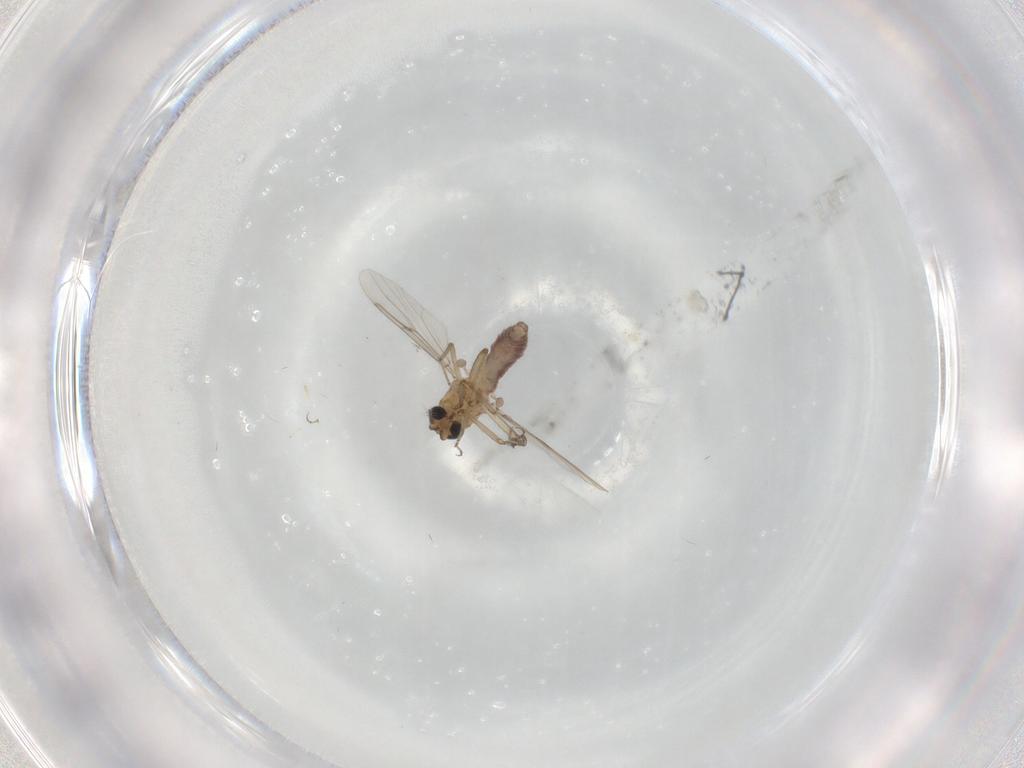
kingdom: Animalia
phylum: Arthropoda
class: Insecta
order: Diptera
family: Ceratopogonidae
